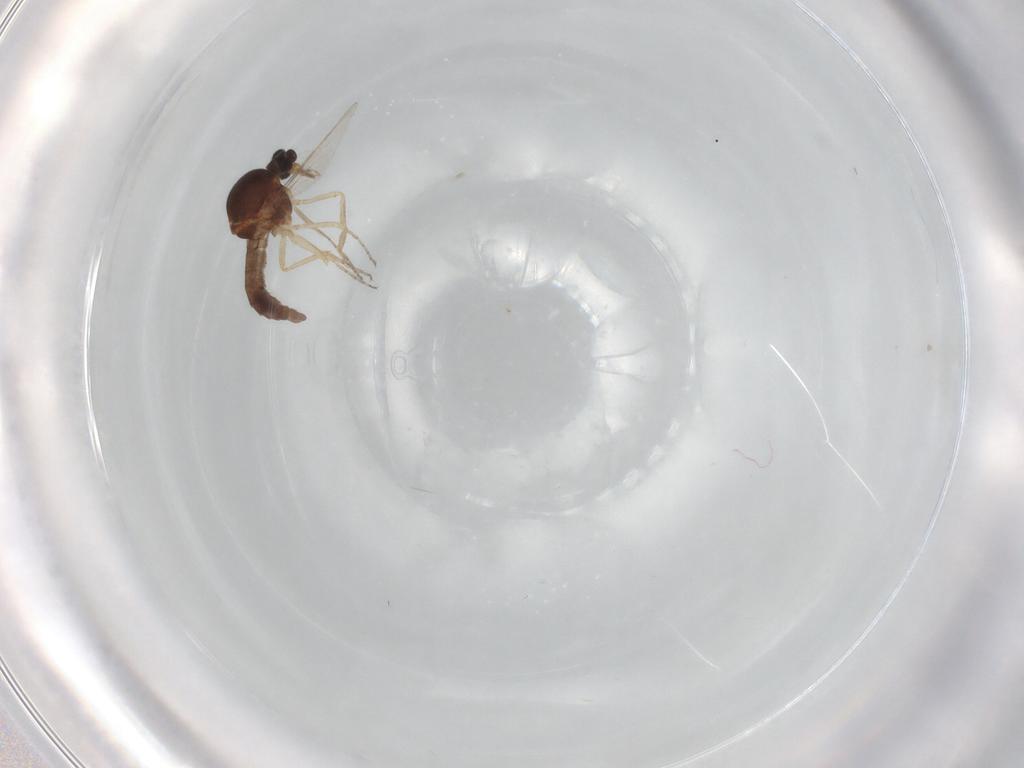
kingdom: Animalia
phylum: Arthropoda
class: Insecta
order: Diptera
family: Ceratopogonidae
